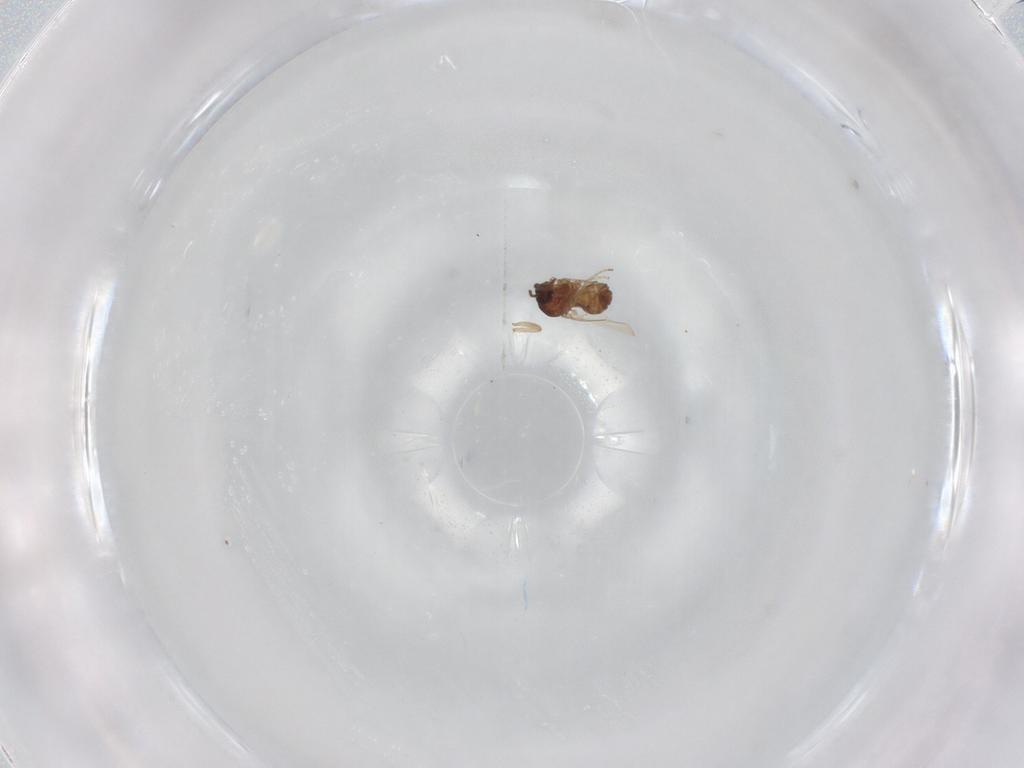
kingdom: Animalia
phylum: Arthropoda
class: Insecta
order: Diptera
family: Ceratopogonidae
